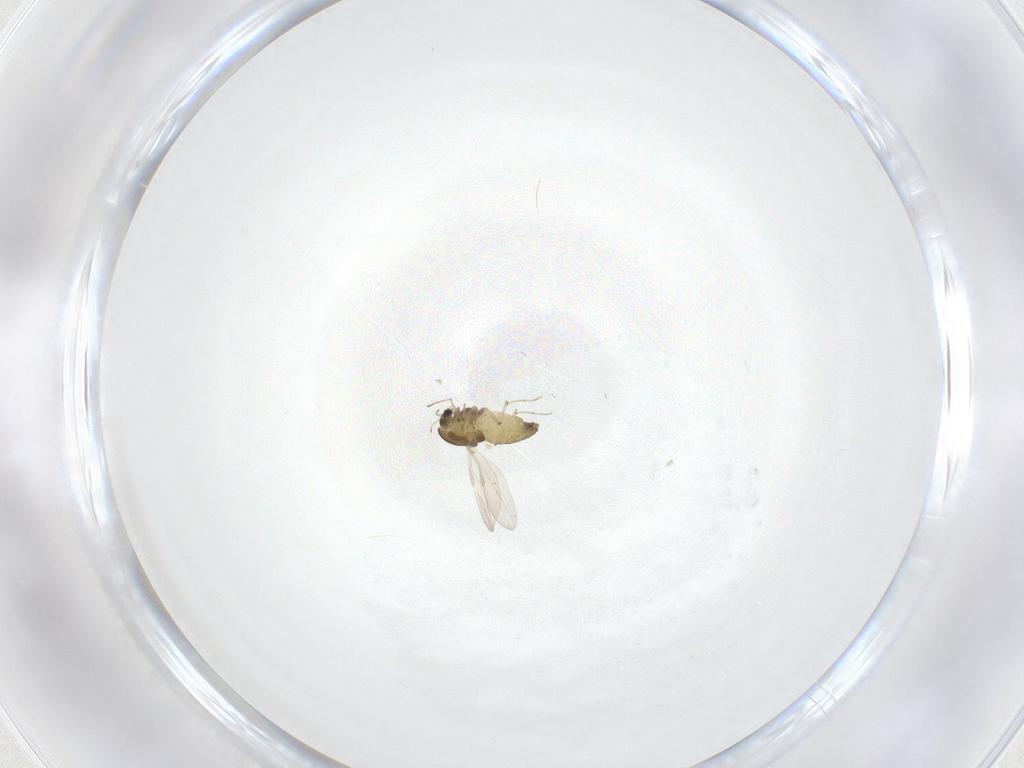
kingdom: Animalia
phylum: Arthropoda
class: Insecta
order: Diptera
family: Chironomidae
